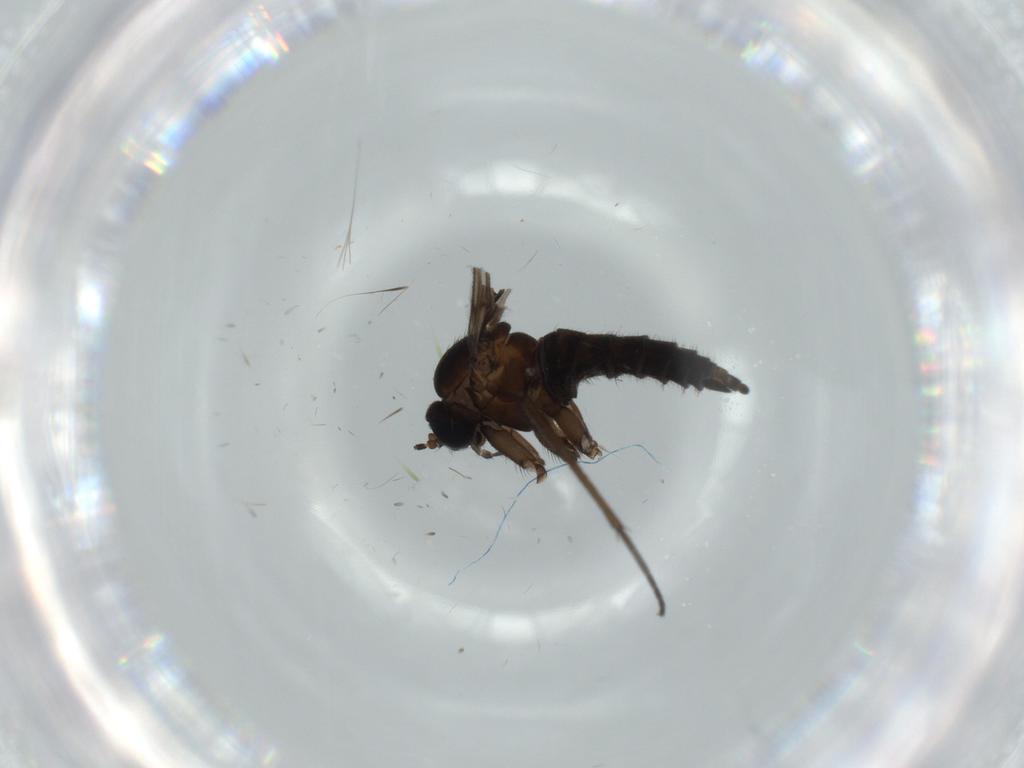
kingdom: Animalia
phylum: Arthropoda
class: Insecta
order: Diptera
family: Sciaridae
